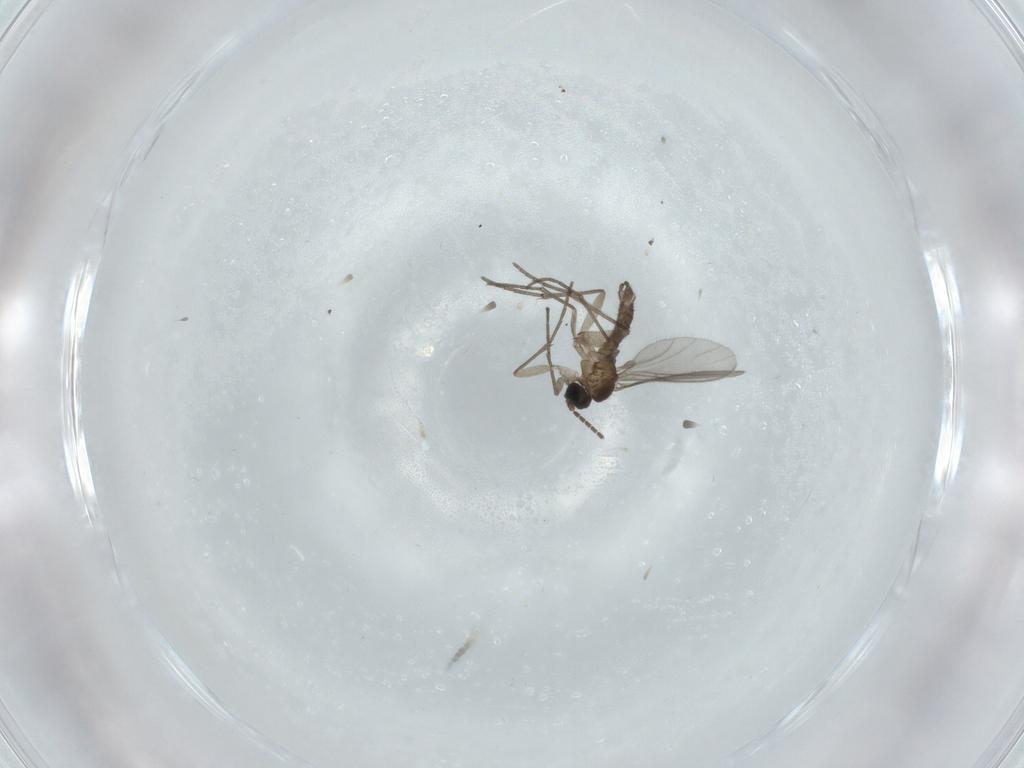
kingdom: Animalia
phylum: Arthropoda
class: Insecta
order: Diptera
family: Sciaridae
